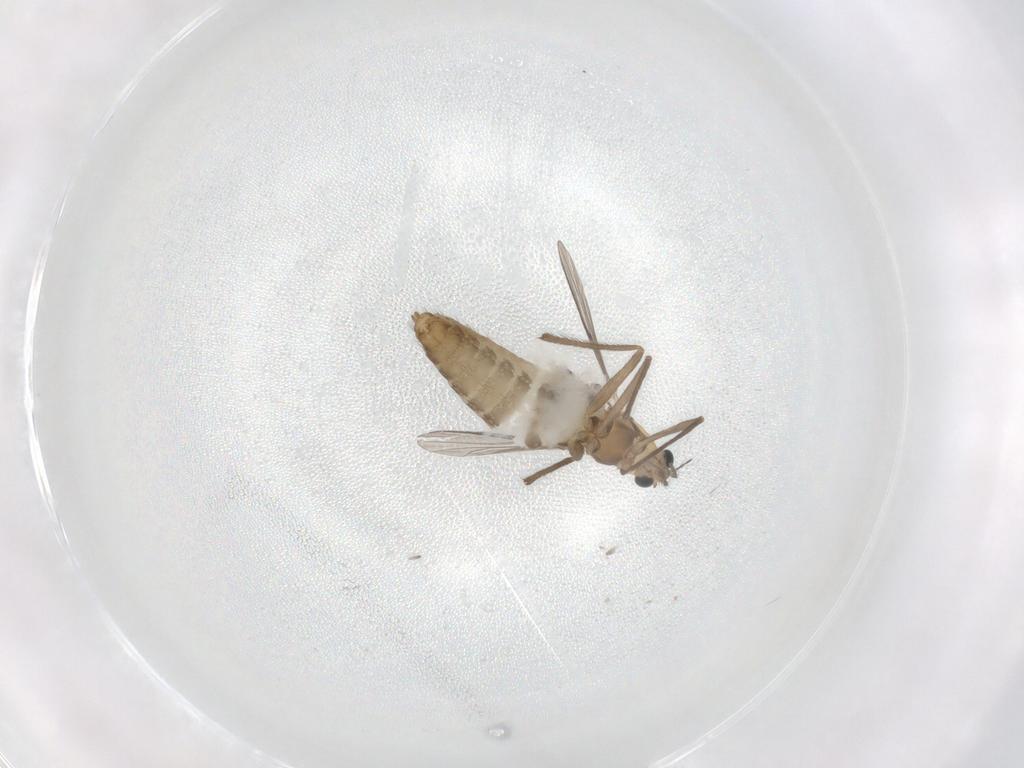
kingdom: Animalia
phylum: Arthropoda
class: Insecta
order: Diptera
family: Chironomidae
